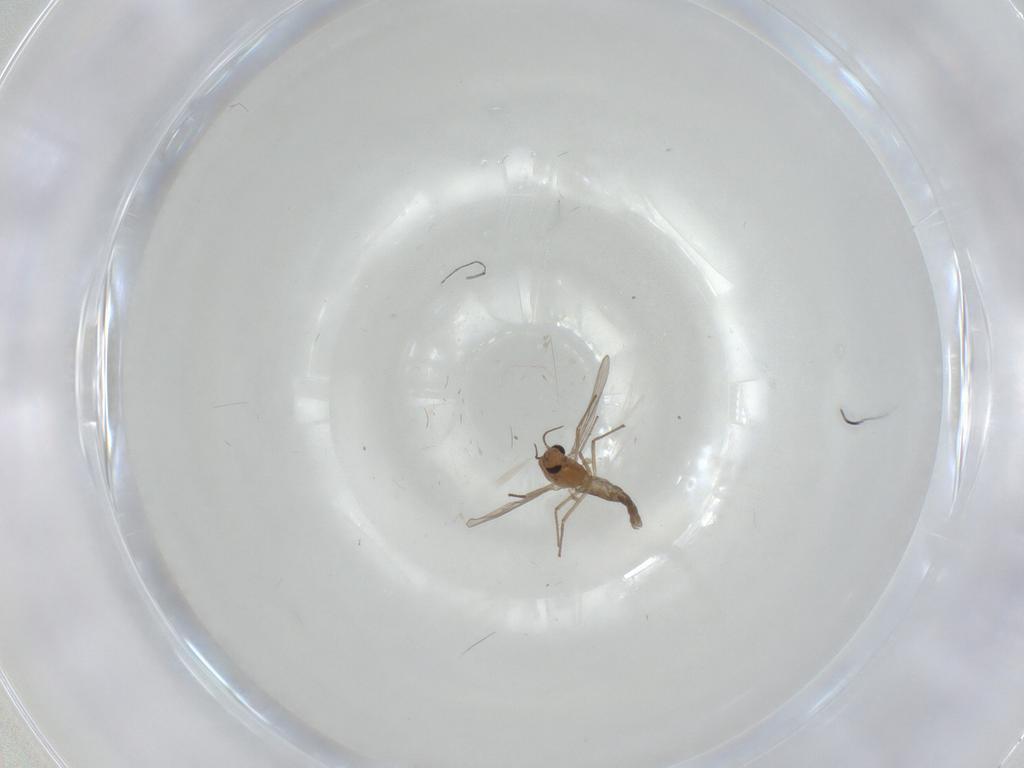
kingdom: Animalia
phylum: Arthropoda
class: Insecta
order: Diptera
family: Chironomidae
